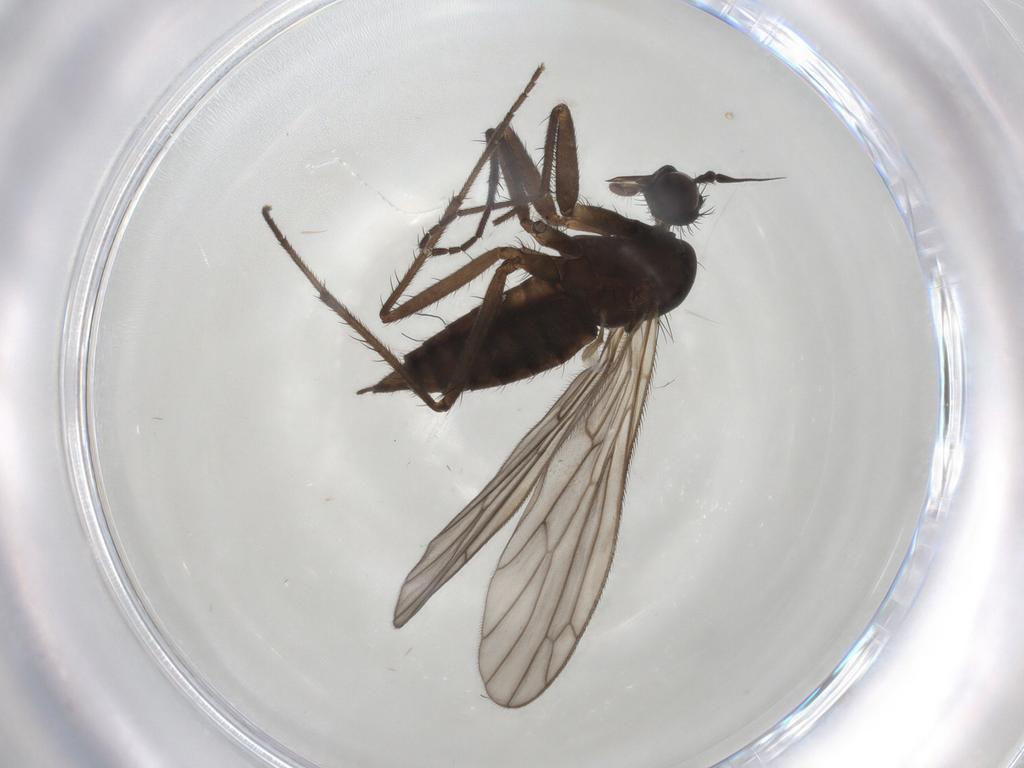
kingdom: Animalia
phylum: Arthropoda
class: Insecta
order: Diptera
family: Empididae
